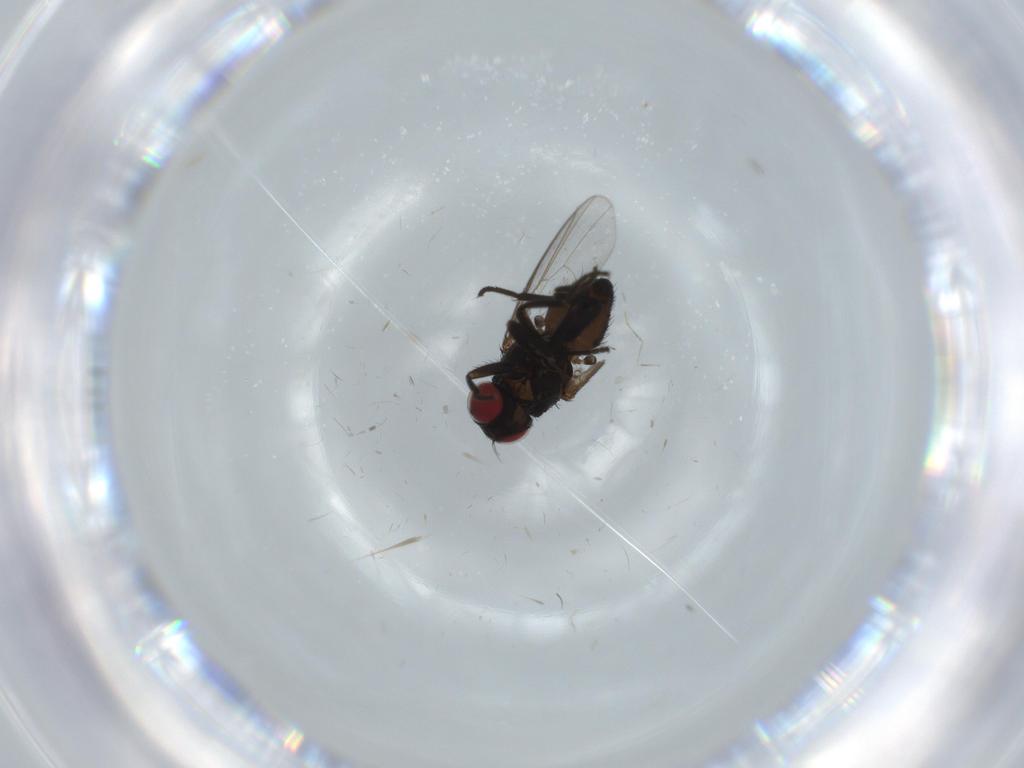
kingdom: Animalia
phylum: Arthropoda
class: Insecta
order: Diptera
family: Agromyzidae
